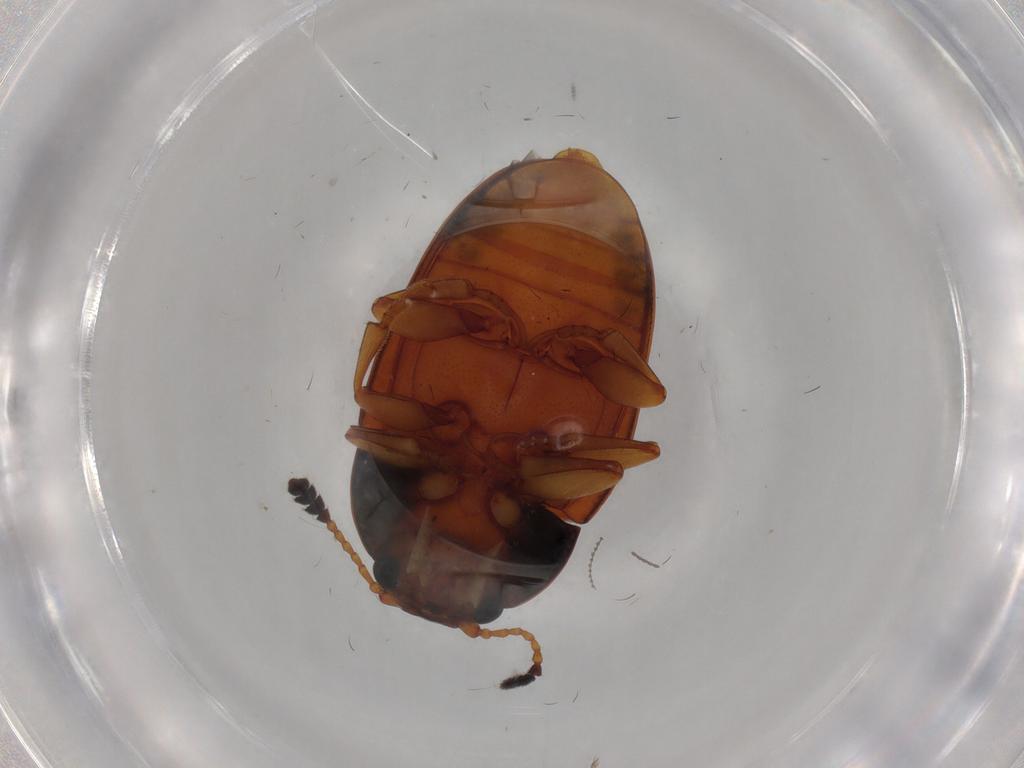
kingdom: Animalia
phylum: Arthropoda
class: Insecta
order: Coleoptera
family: Erotylidae
